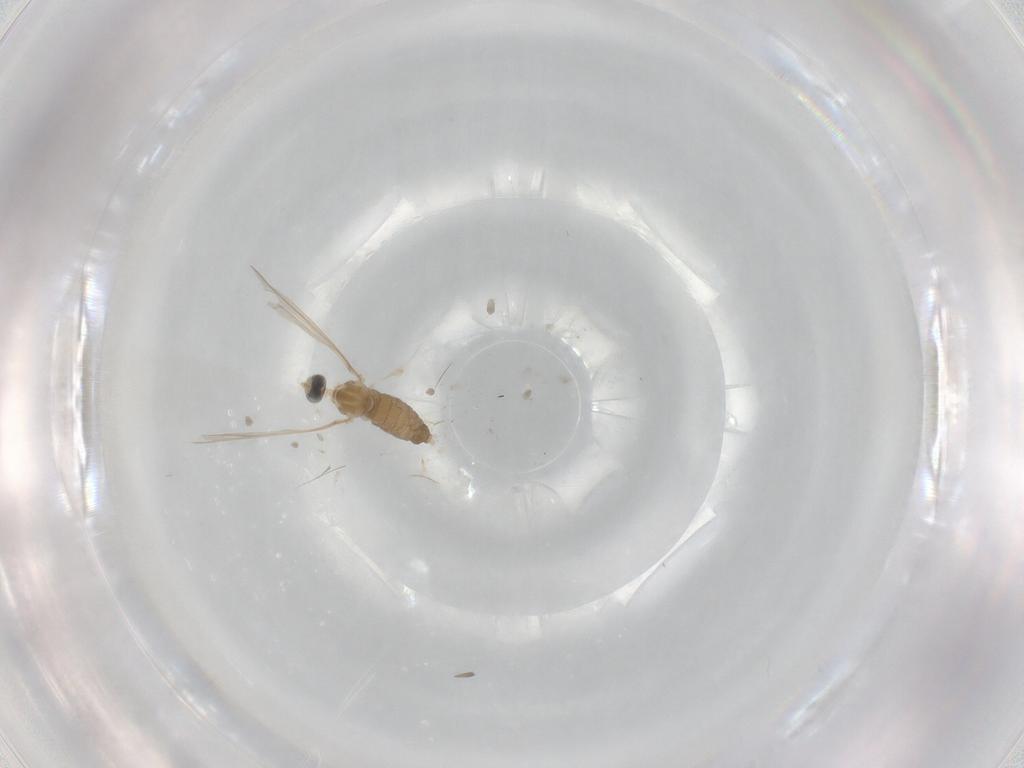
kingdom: Animalia
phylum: Arthropoda
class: Insecta
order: Diptera
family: Cecidomyiidae
